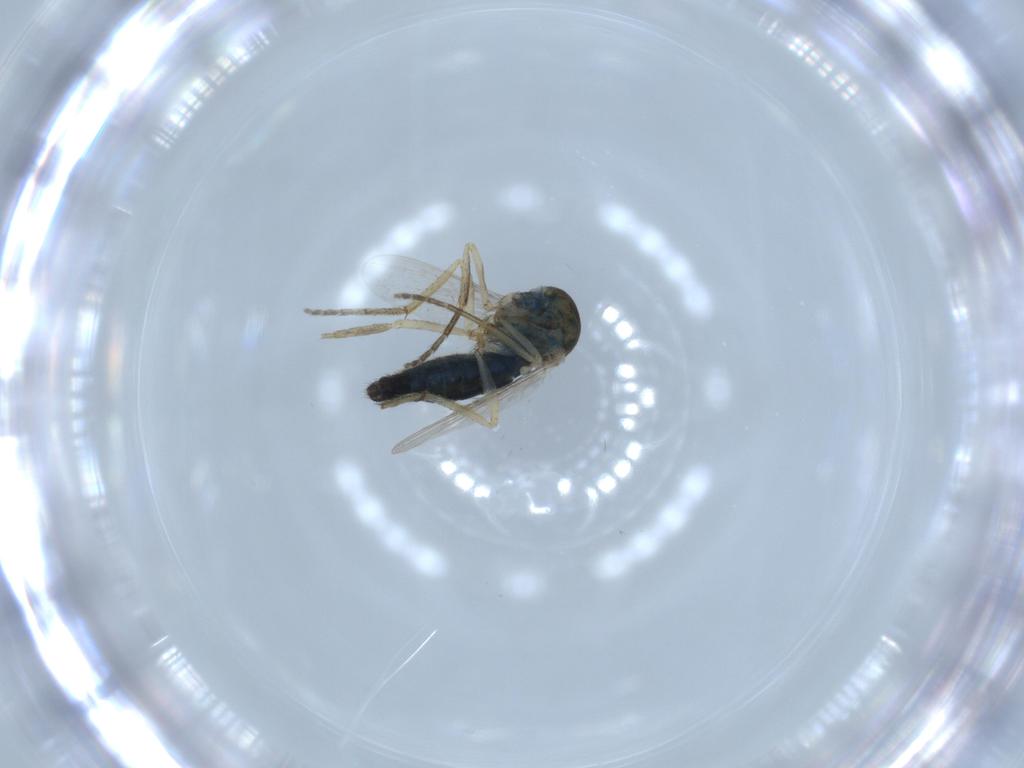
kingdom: Animalia
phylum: Arthropoda
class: Insecta
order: Diptera
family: Ceratopogonidae
